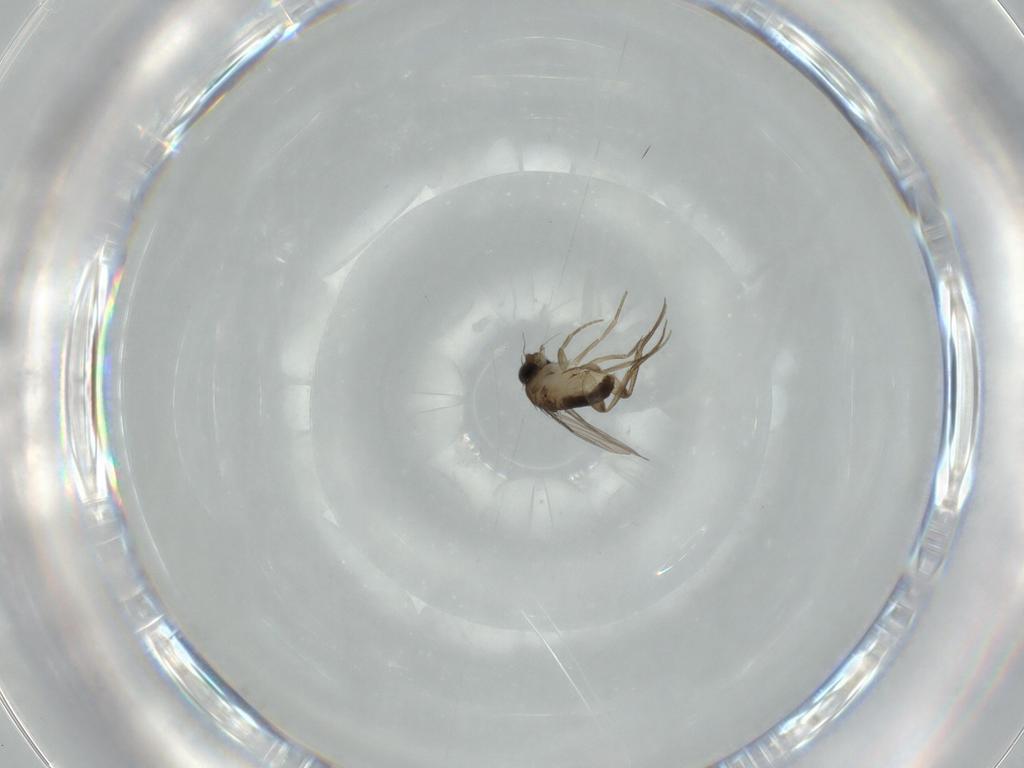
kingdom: Animalia
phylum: Arthropoda
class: Insecta
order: Diptera
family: Phoridae
